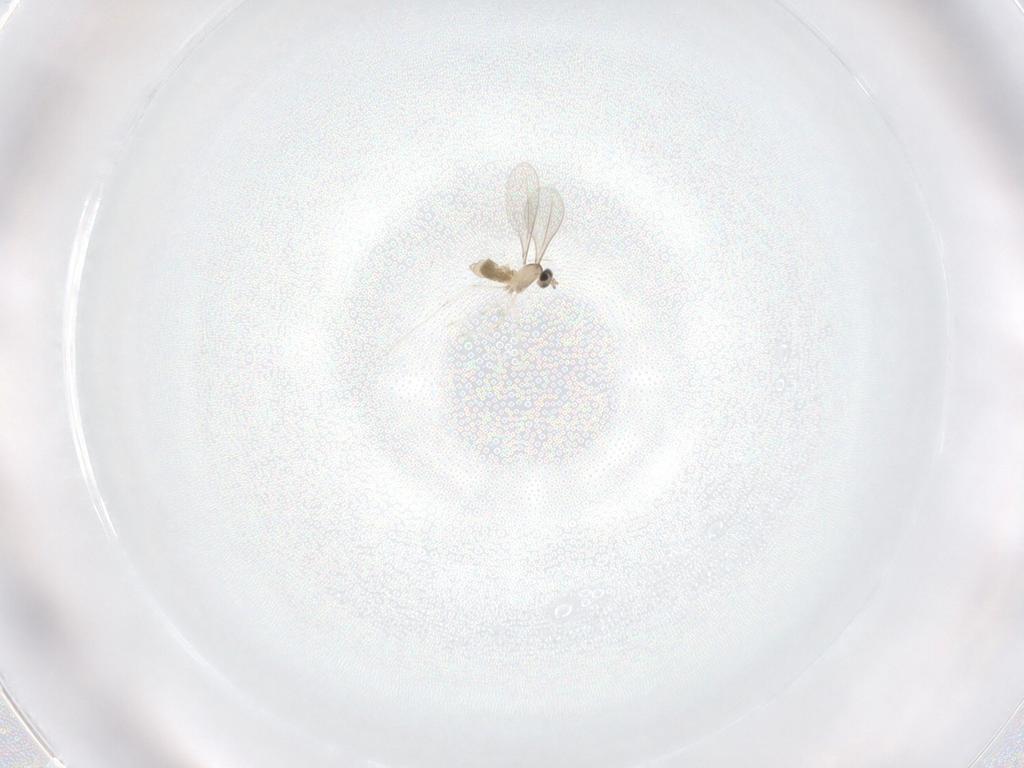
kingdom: Animalia
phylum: Arthropoda
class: Insecta
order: Diptera
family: Cecidomyiidae
